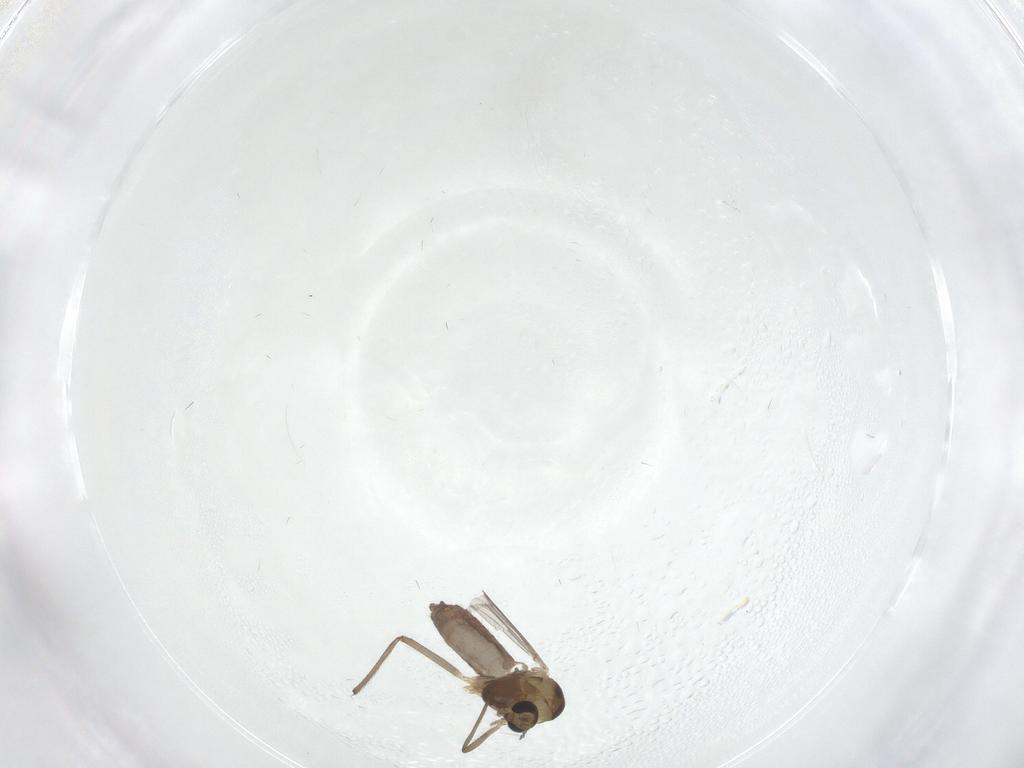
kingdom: Animalia
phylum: Arthropoda
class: Insecta
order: Diptera
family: Chironomidae
